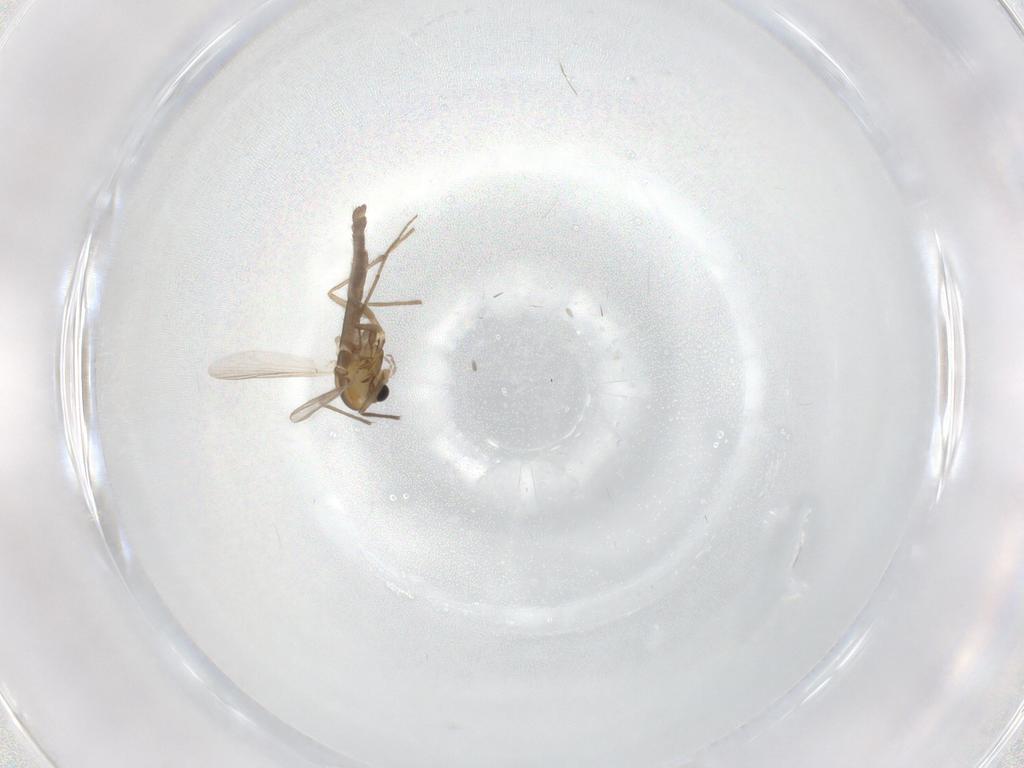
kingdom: Animalia
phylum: Arthropoda
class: Insecta
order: Diptera
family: Chironomidae
